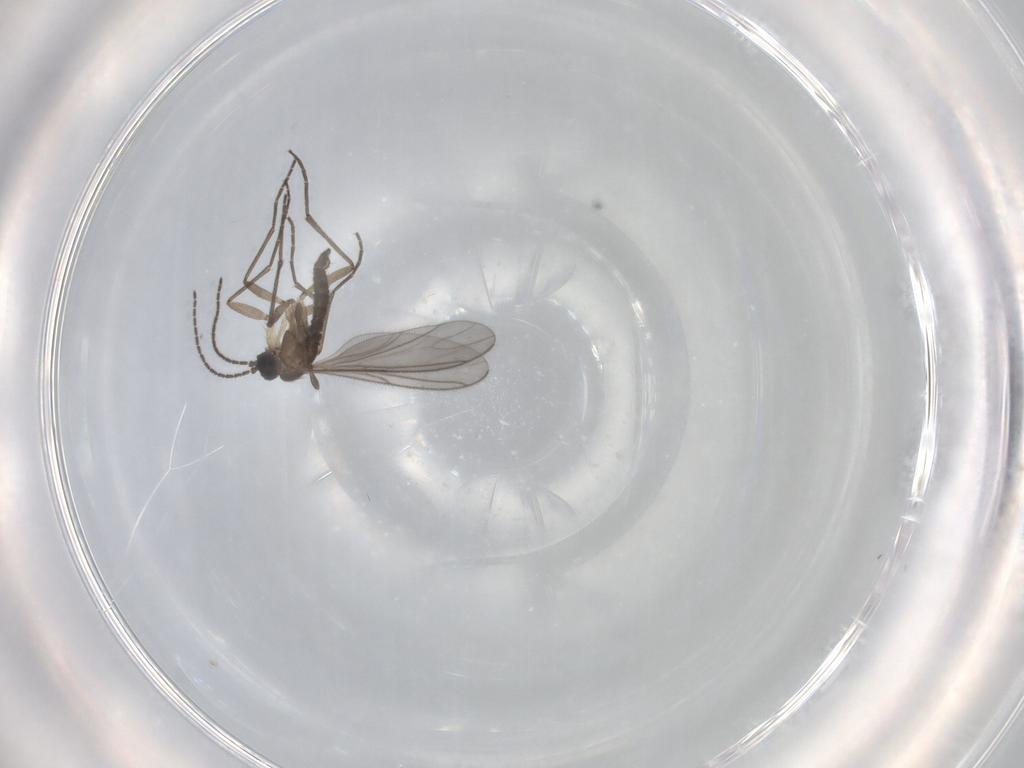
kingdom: Animalia
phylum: Arthropoda
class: Insecta
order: Diptera
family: Sciaridae
